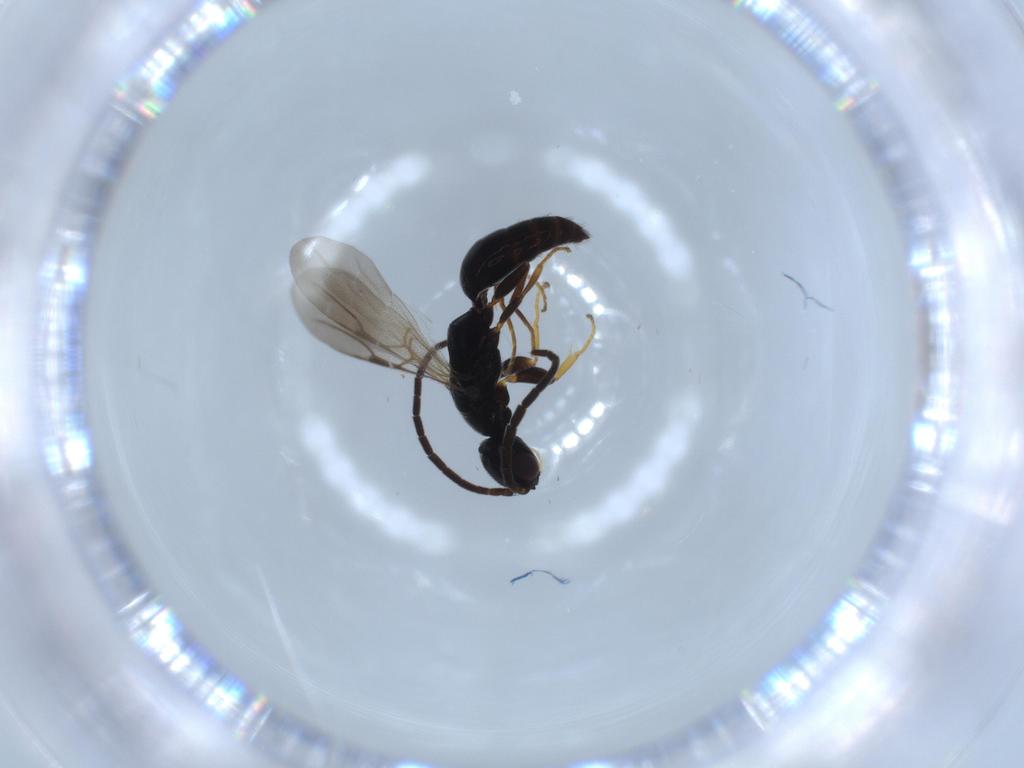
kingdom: Animalia
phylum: Arthropoda
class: Insecta
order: Hymenoptera
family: Bethylidae
